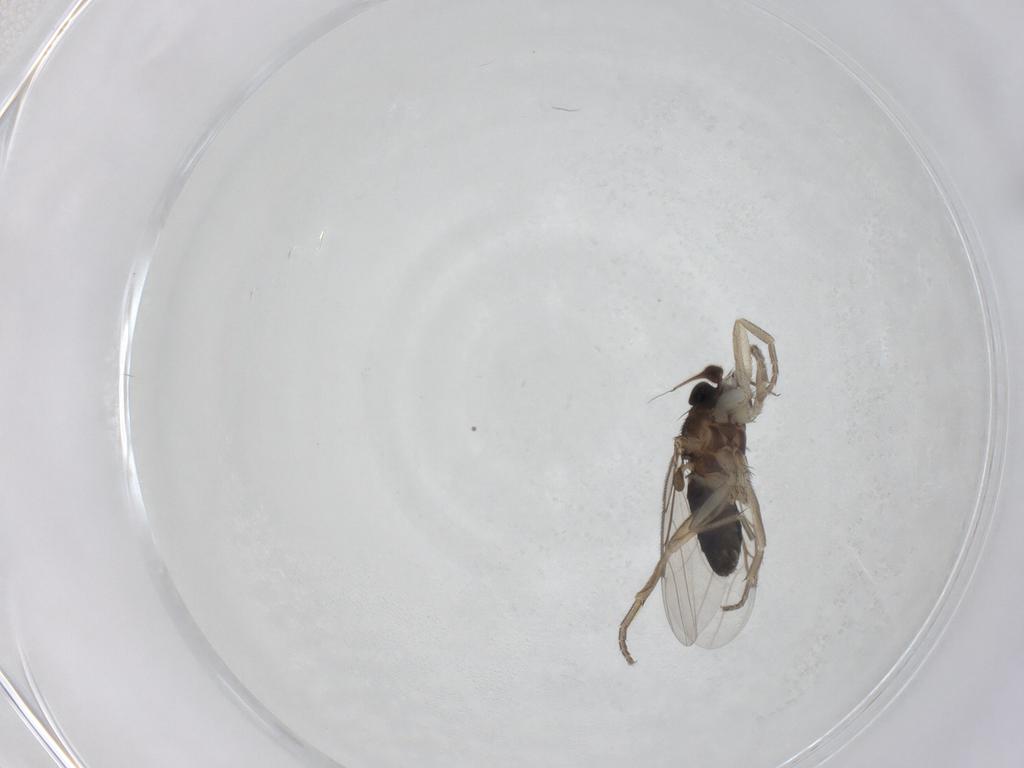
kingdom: Animalia
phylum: Arthropoda
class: Insecta
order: Diptera
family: Phoridae
